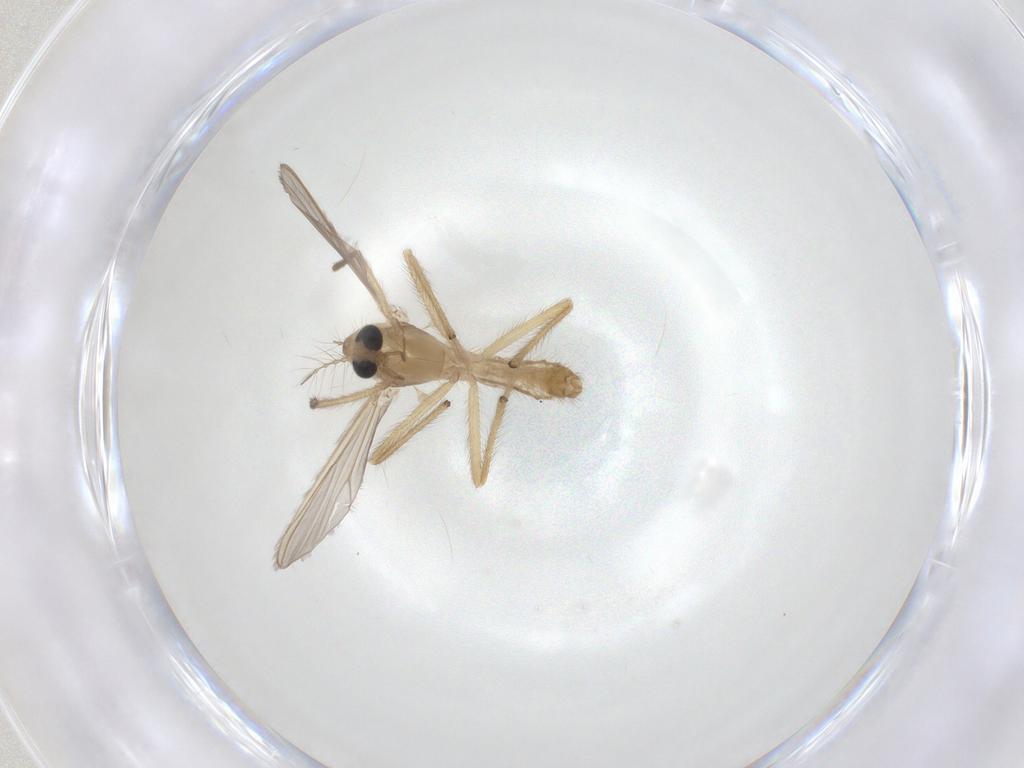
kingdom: Animalia
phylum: Arthropoda
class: Insecta
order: Diptera
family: Chironomidae
